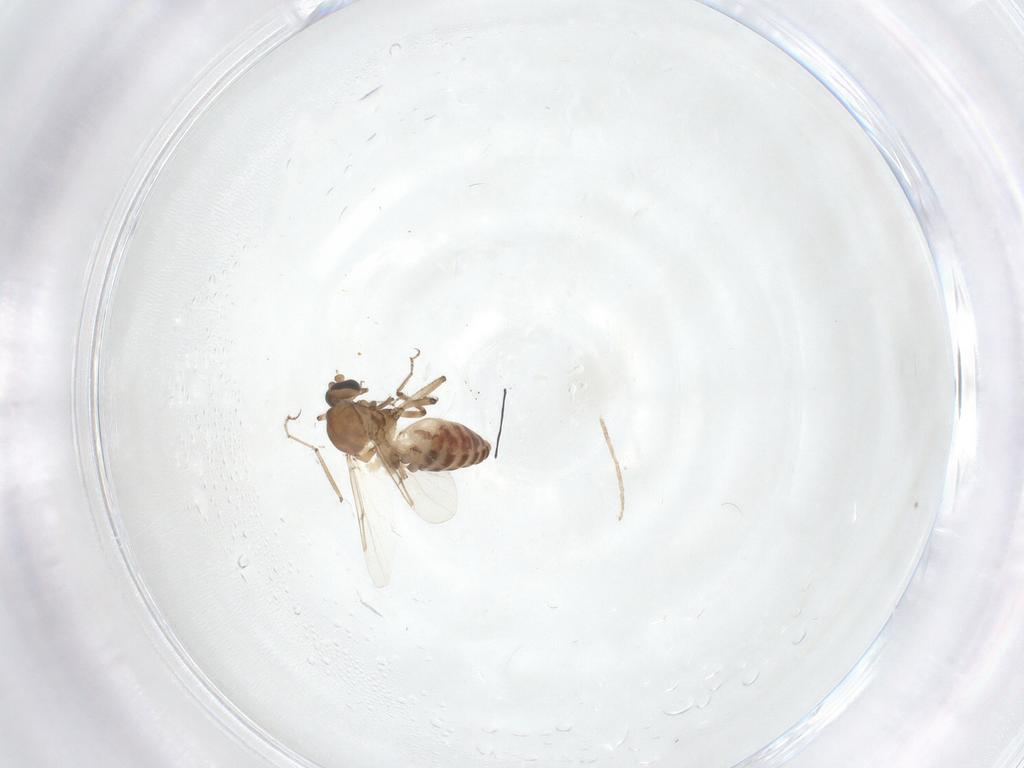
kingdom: Animalia
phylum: Arthropoda
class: Insecta
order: Diptera
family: Ceratopogonidae
